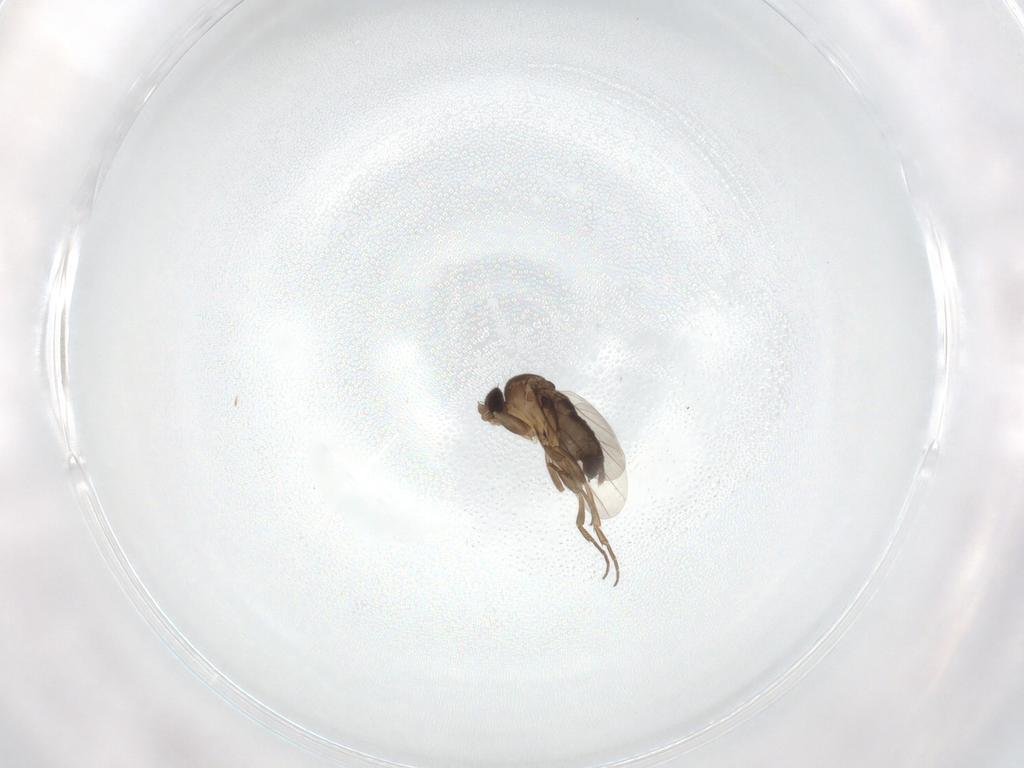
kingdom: Animalia
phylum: Arthropoda
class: Insecta
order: Diptera
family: Phoridae
